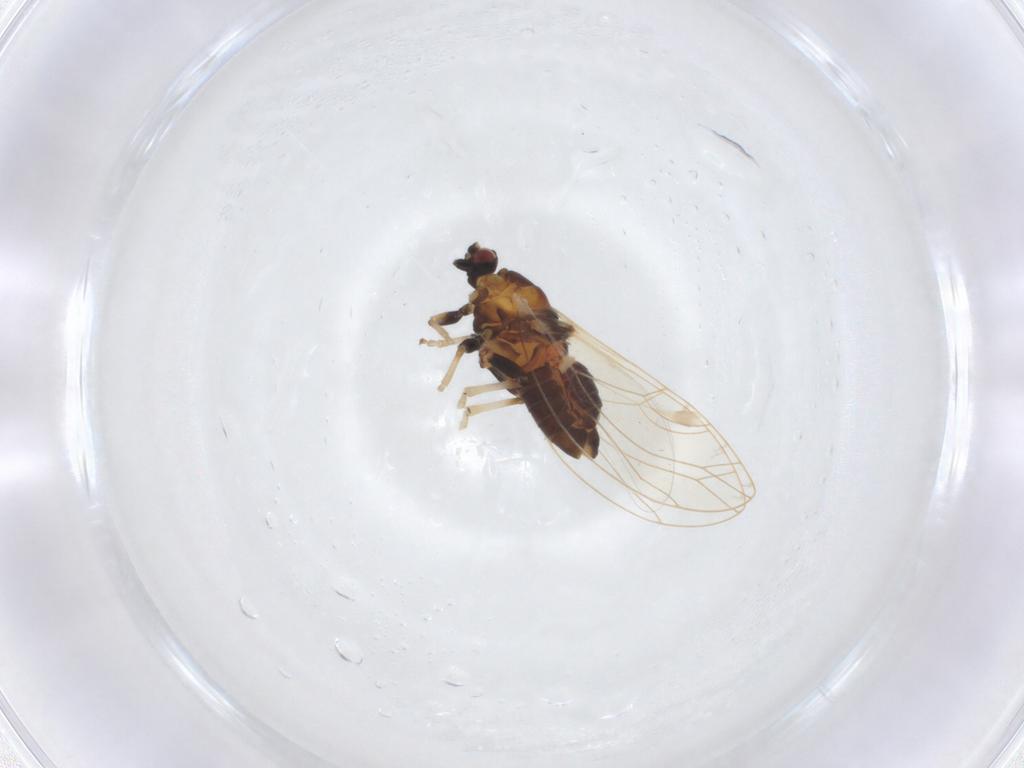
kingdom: Animalia
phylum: Arthropoda
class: Insecta
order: Hemiptera
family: Triozidae
